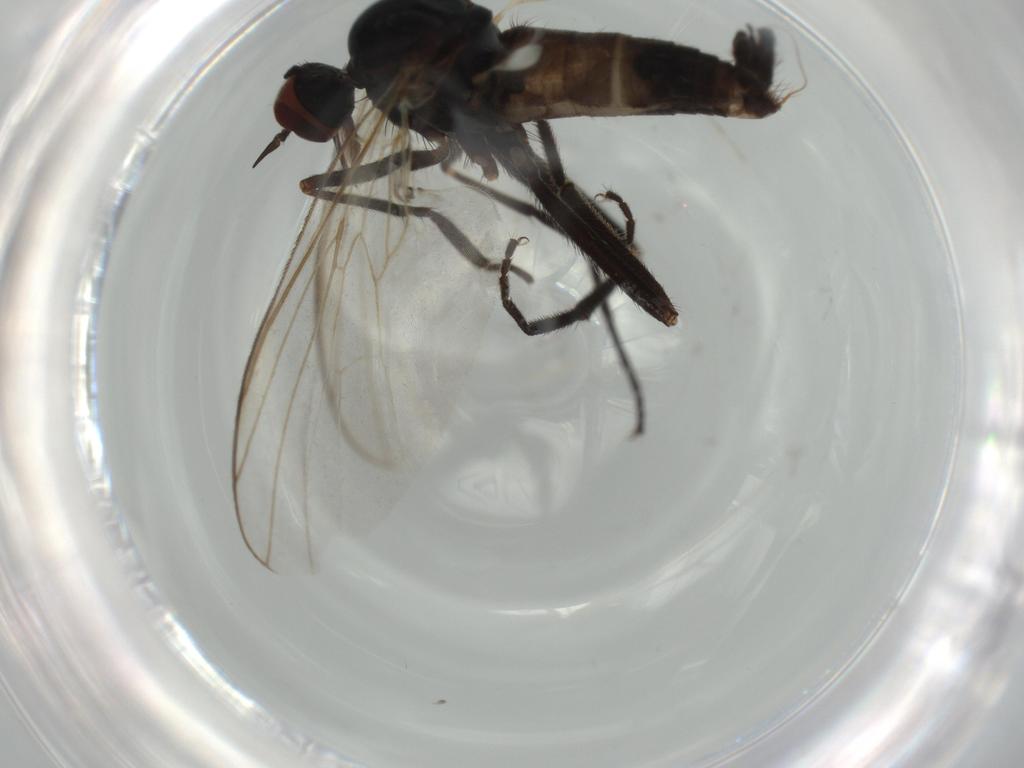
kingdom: Animalia
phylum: Arthropoda
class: Insecta
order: Diptera
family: Empididae
